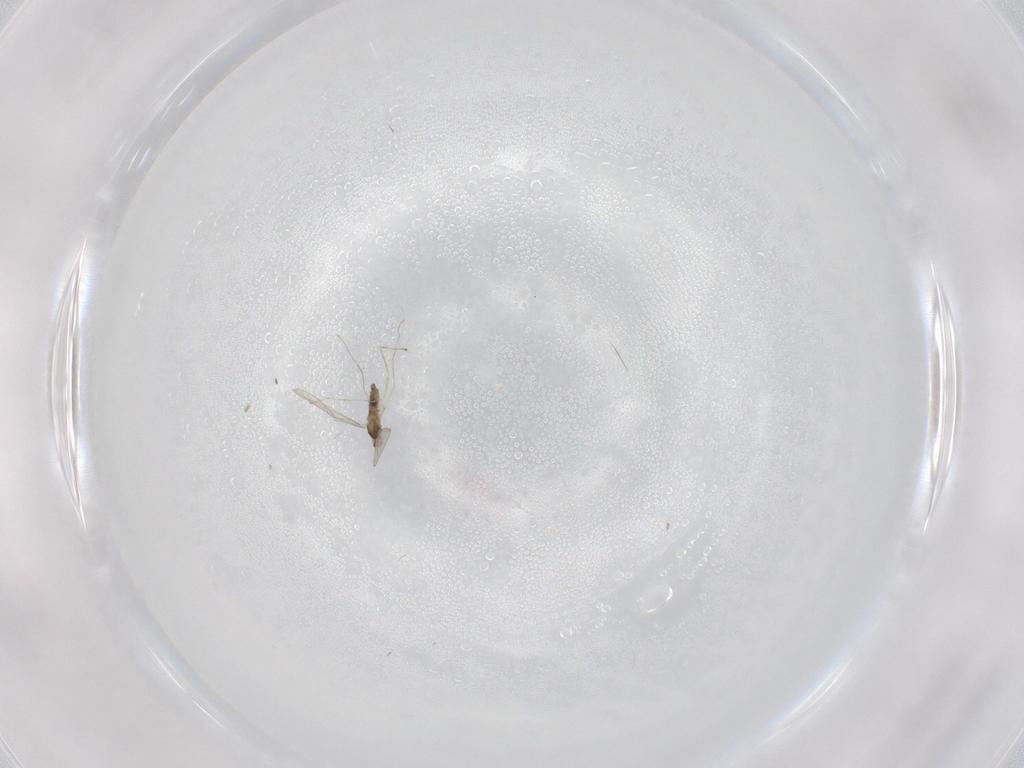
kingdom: Animalia
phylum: Arthropoda
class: Insecta
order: Diptera
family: Cecidomyiidae
